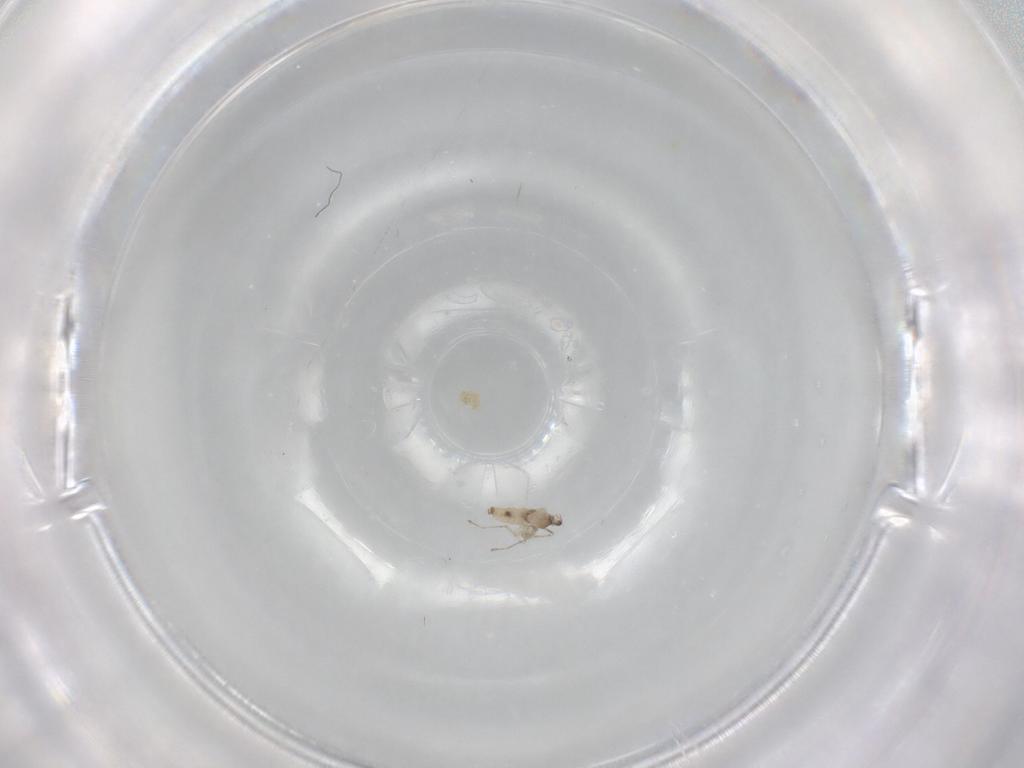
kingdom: Animalia
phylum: Arthropoda
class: Insecta
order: Diptera
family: Cecidomyiidae
